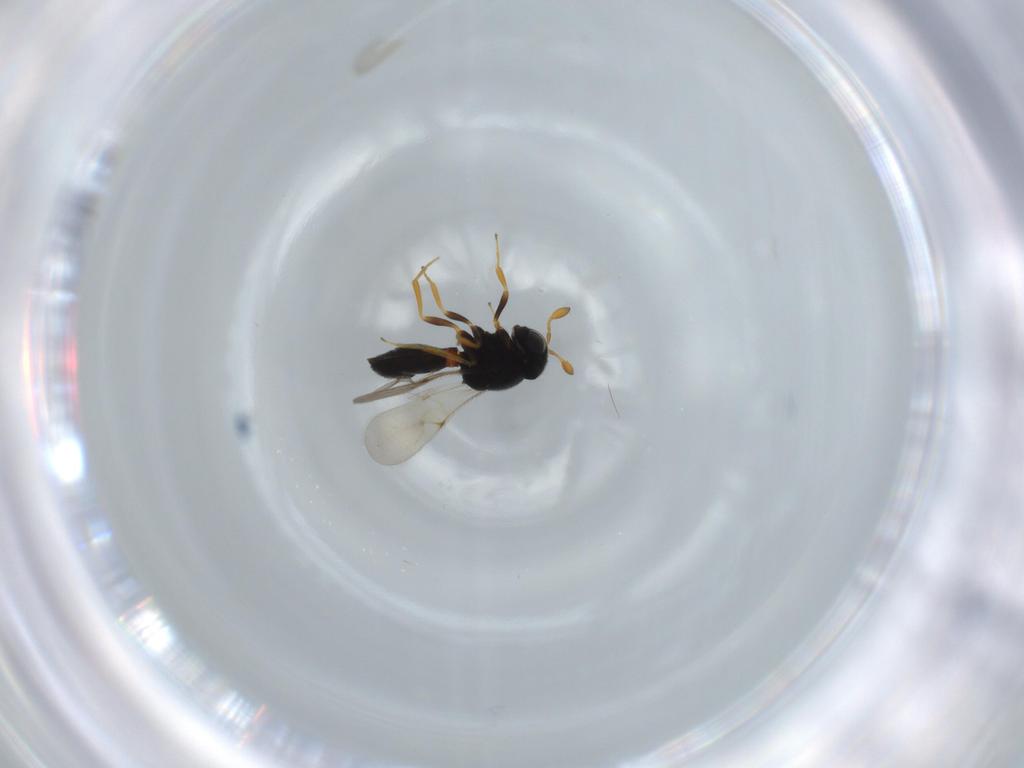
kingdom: Animalia
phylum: Arthropoda
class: Insecta
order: Hymenoptera
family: Scelionidae
